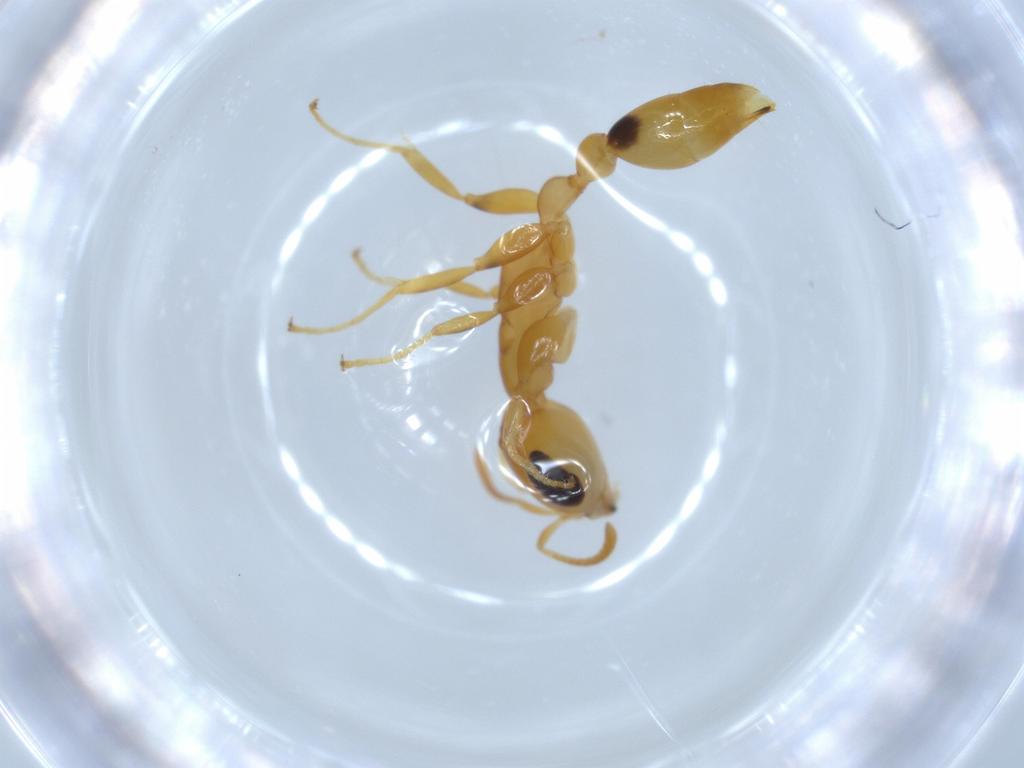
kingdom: Animalia
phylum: Arthropoda
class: Insecta
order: Hymenoptera
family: Formicidae
